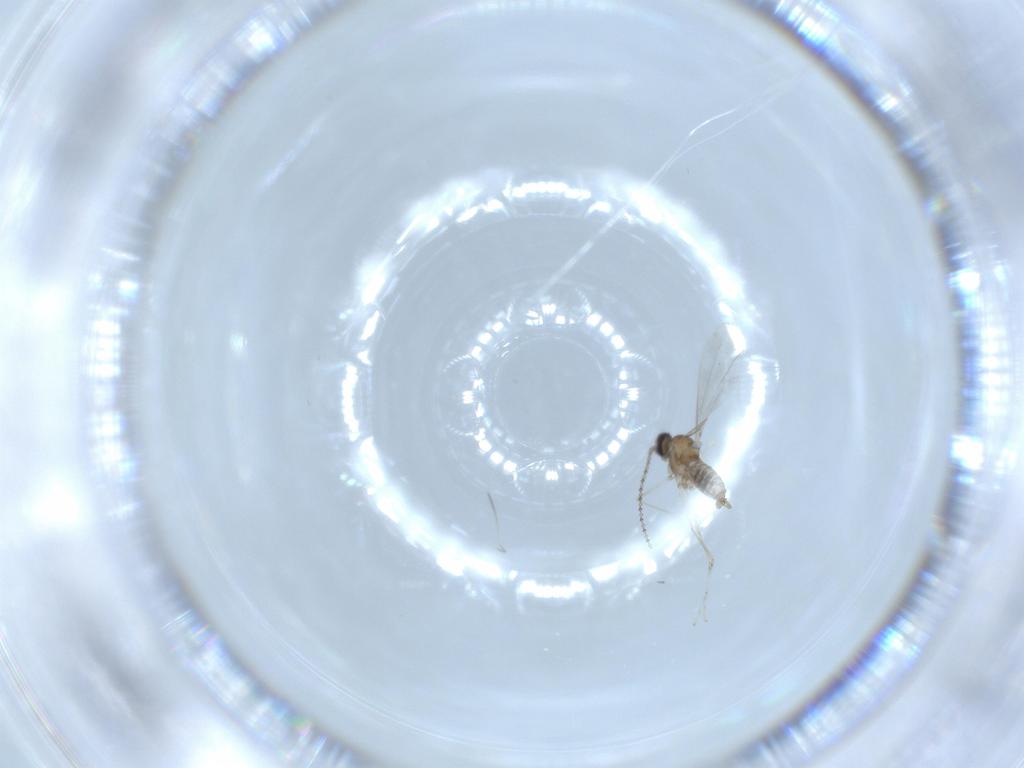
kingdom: Animalia
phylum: Arthropoda
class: Insecta
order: Diptera
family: Cecidomyiidae
